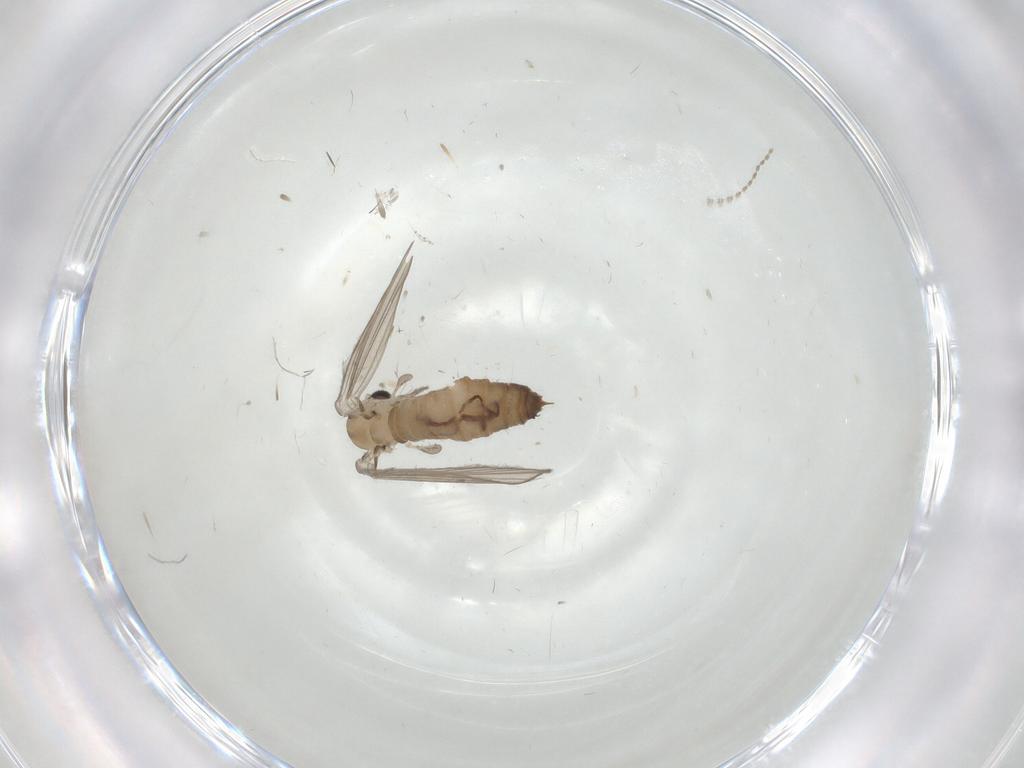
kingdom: Animalia
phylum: Arthropoda
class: Insecta
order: Diptera
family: Psychodidae
